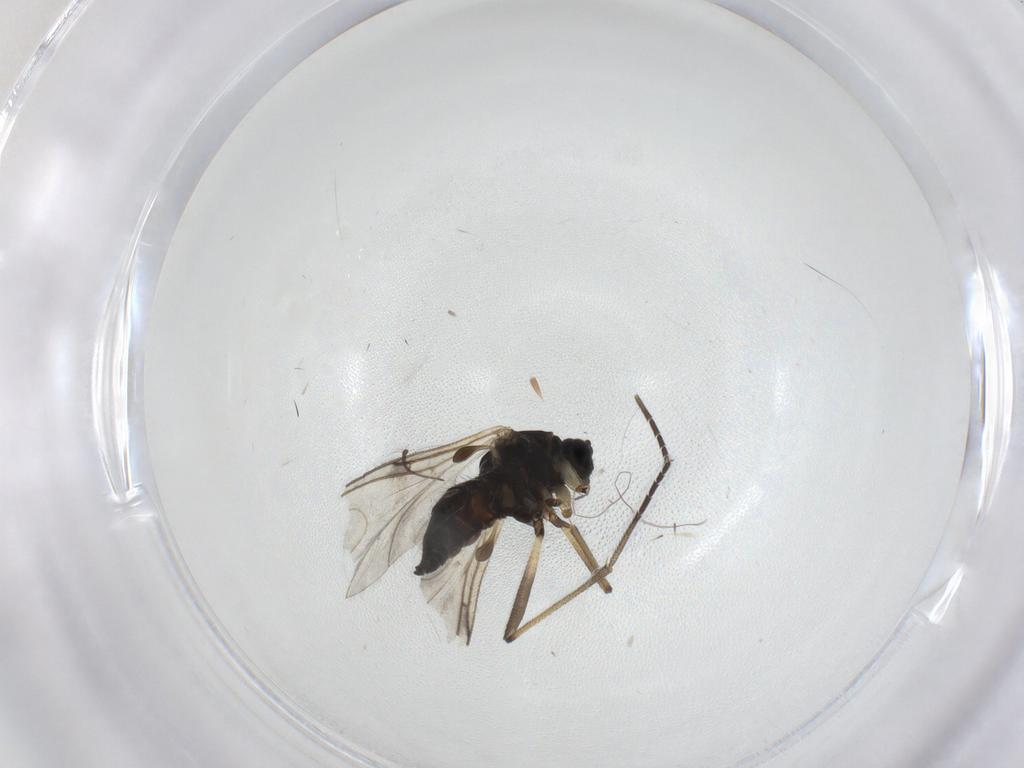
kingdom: Animalia
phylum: Arthropoda
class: Insecta
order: Diptera
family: Sciaridae
